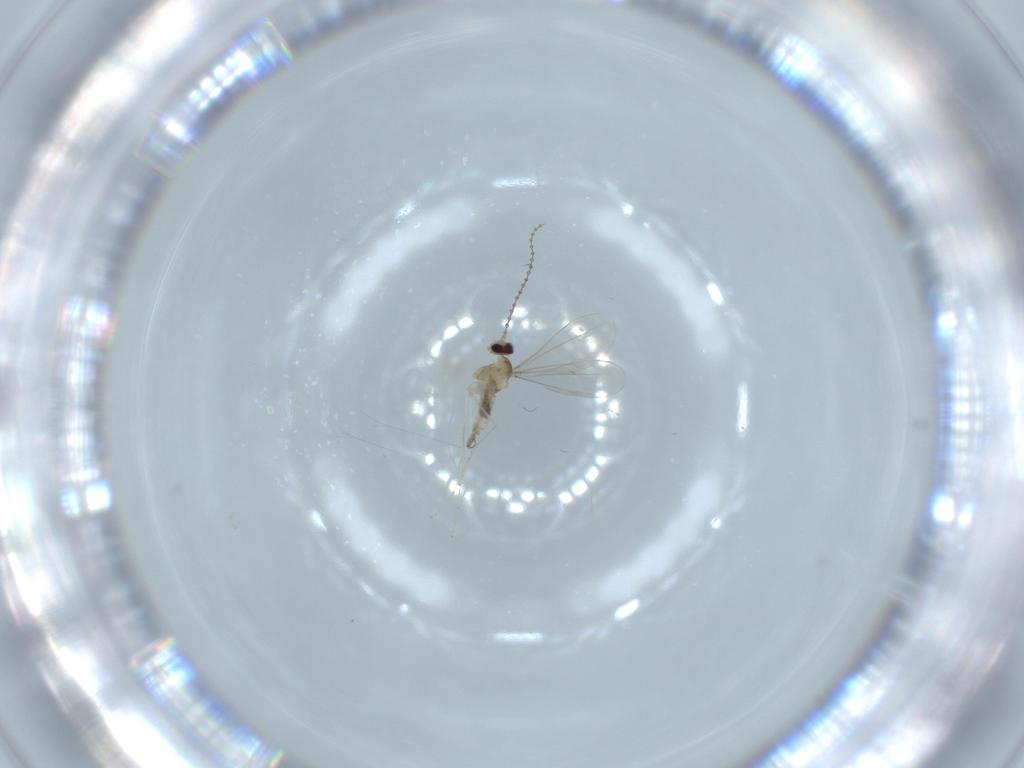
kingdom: Animalia
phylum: Arthropoda
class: Insecta
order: Diptera
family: Cecidomyiidae
